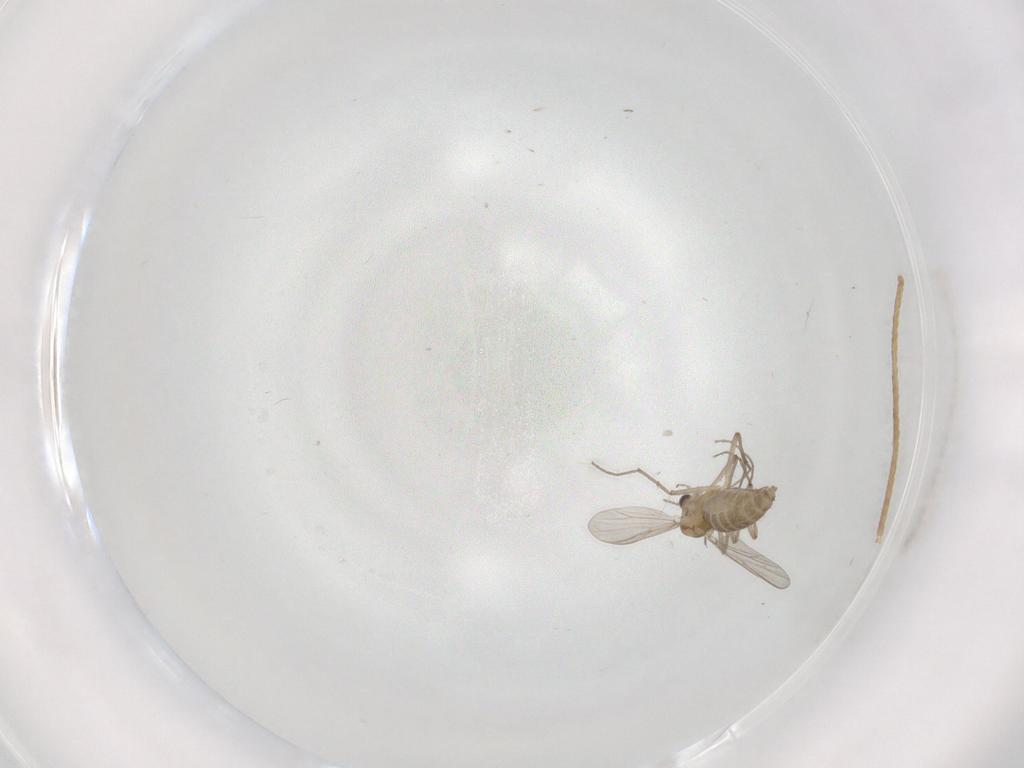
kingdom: Animalia
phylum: Arthropoda
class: Insecta
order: Diptera
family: Chironomidae
